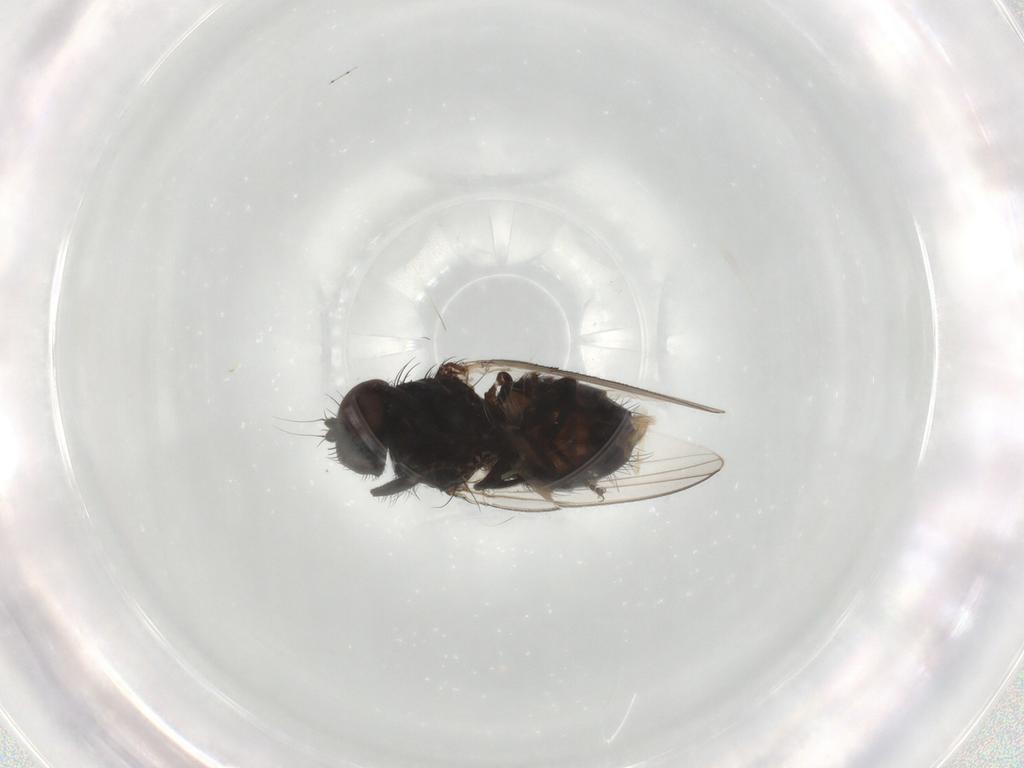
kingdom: Animalia
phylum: Arthropoda
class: Insecta
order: Diptera
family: Milichiidae
